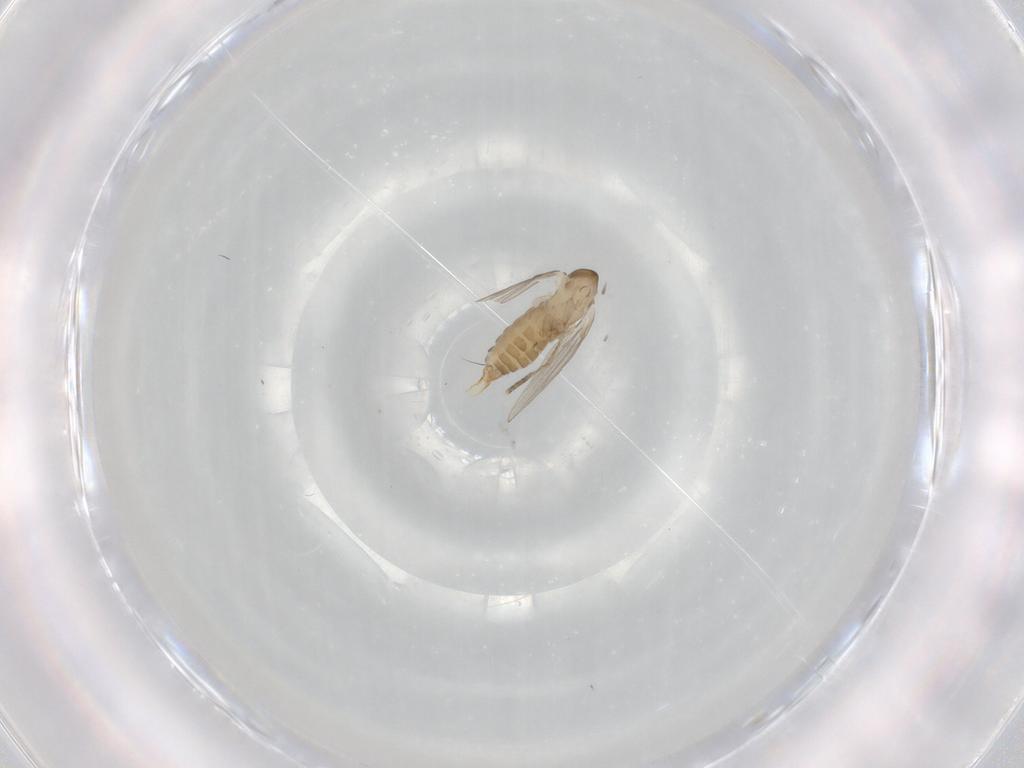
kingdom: Animalia
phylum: Arthropoda
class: Insecta
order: Diptera
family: Psychodidae
